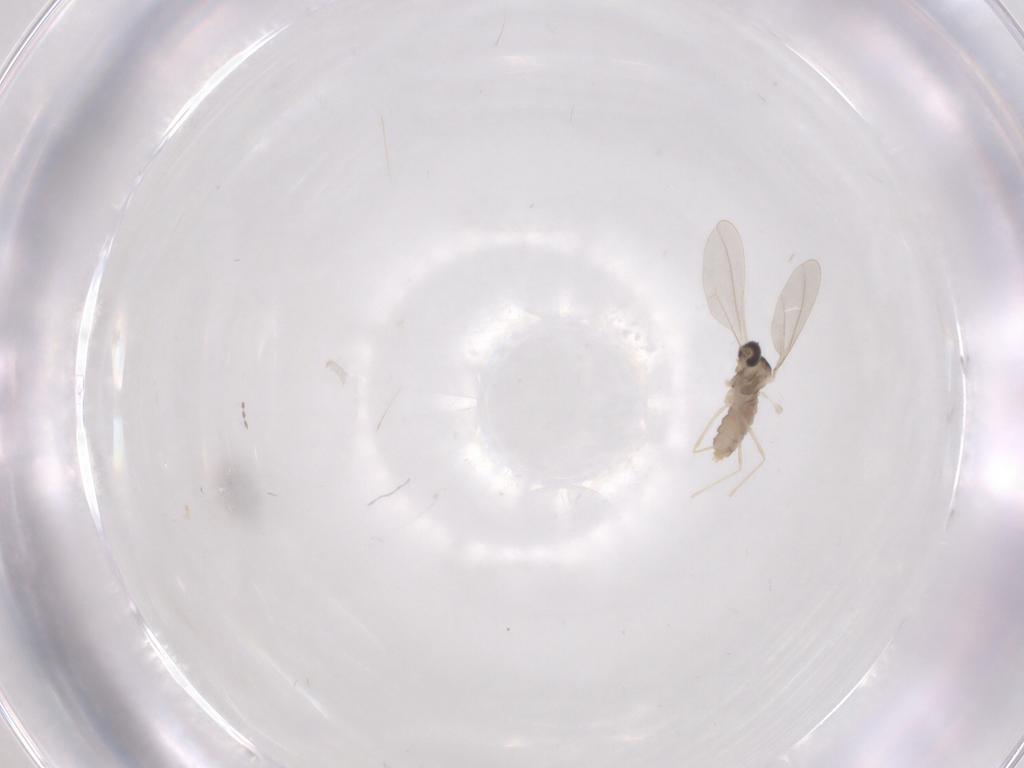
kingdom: Animalia
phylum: Arthropoda
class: Insecta
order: Diptera
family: Cecidomyiidae
